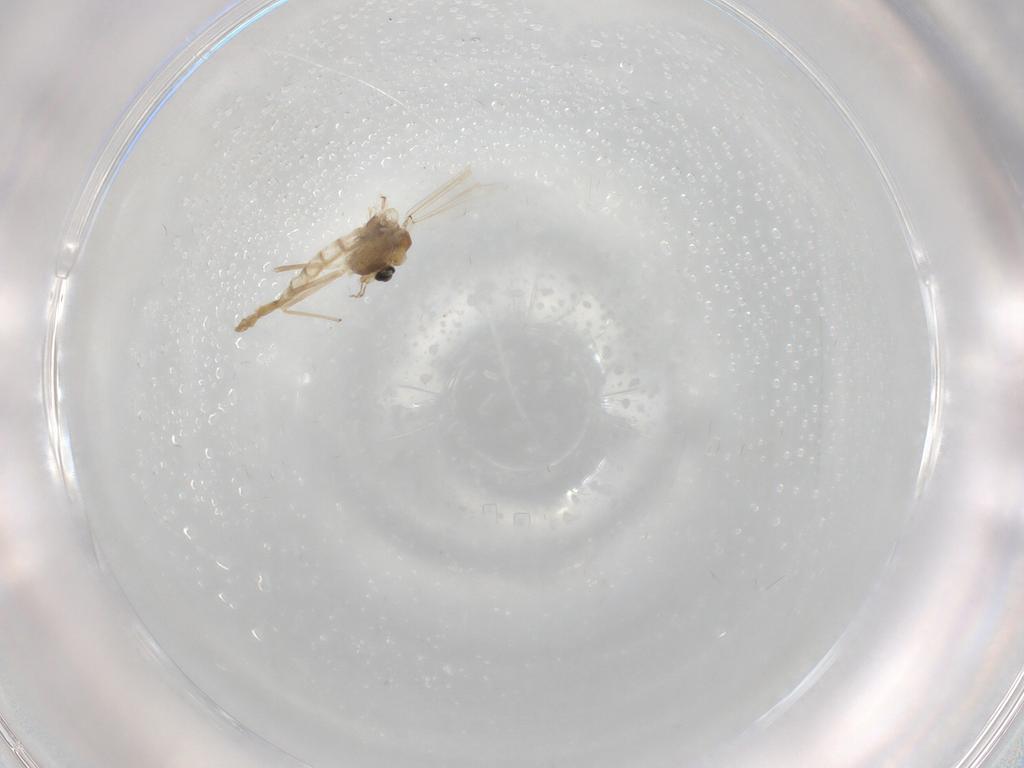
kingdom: Animalia
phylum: Arthropoda
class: Insecta
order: Diptera
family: Chironomidae
